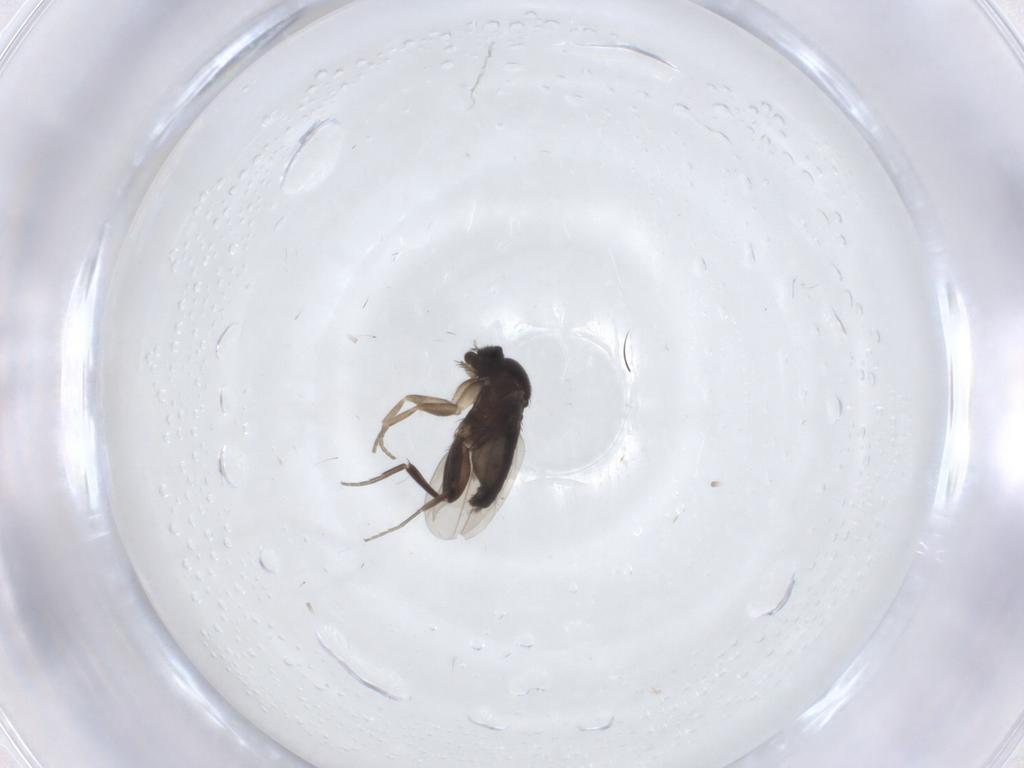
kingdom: Animalia
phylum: Arthropoda
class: Insecta
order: Diptera
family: Phoridae
